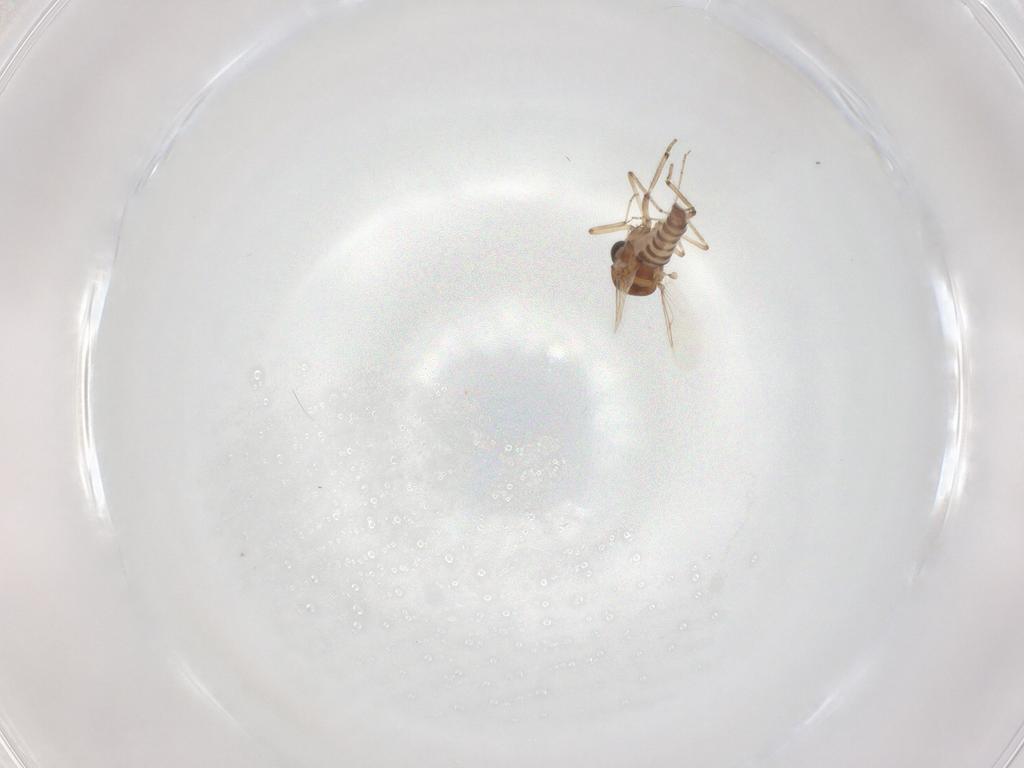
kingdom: Animalia
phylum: Arthropoda
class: Insecta
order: Diptera
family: Ceratopogonidae
